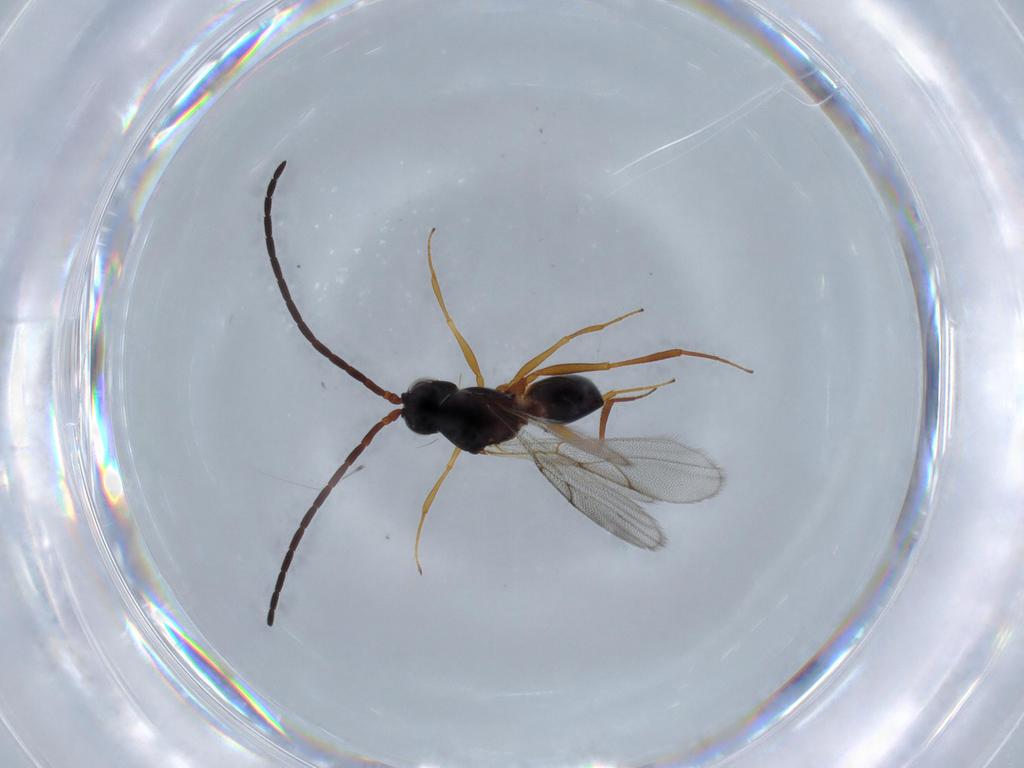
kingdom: Animalia
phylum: Arthropoda
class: Insecta
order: Hymenoptera
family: Figitidae
